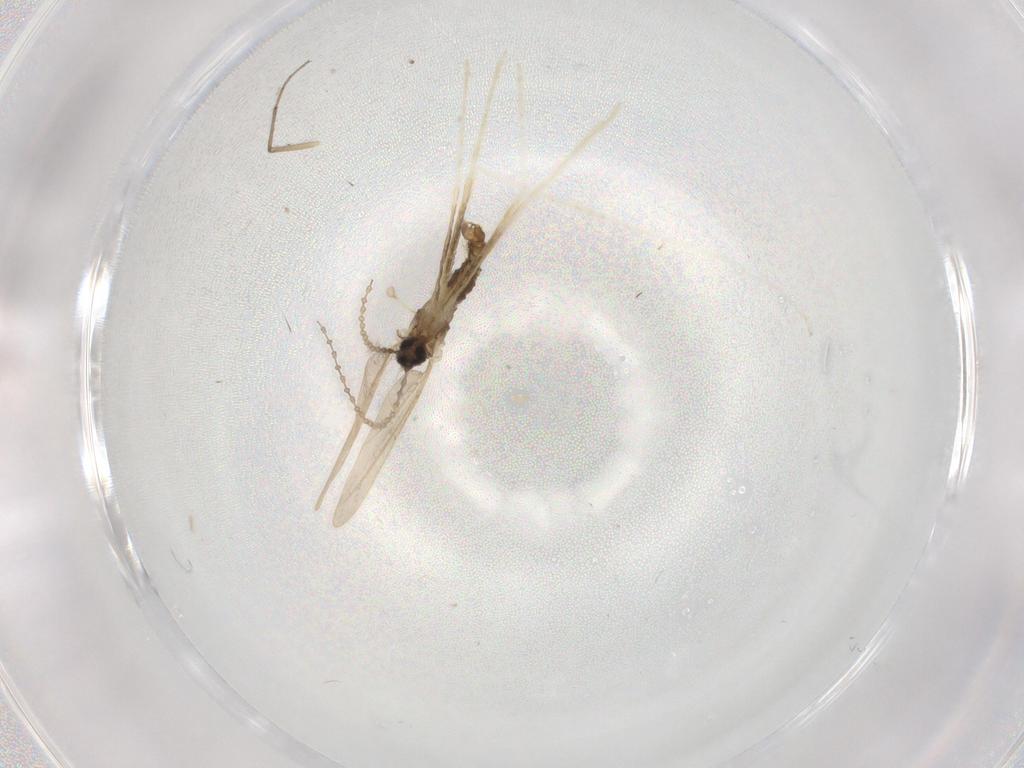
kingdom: Animalia
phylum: Arthropoda
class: Insecta
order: Diptera
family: Cecidomyiidae
